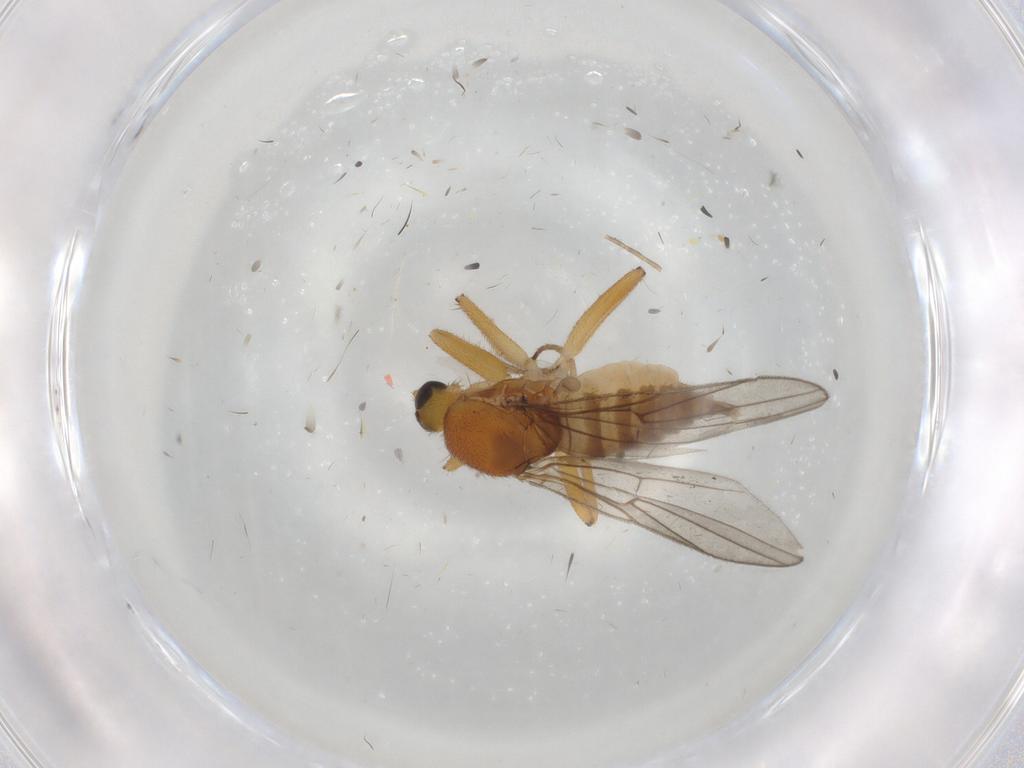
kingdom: Animalia
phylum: Arthropoda
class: Insecta
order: Diptera
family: Hybotidae
